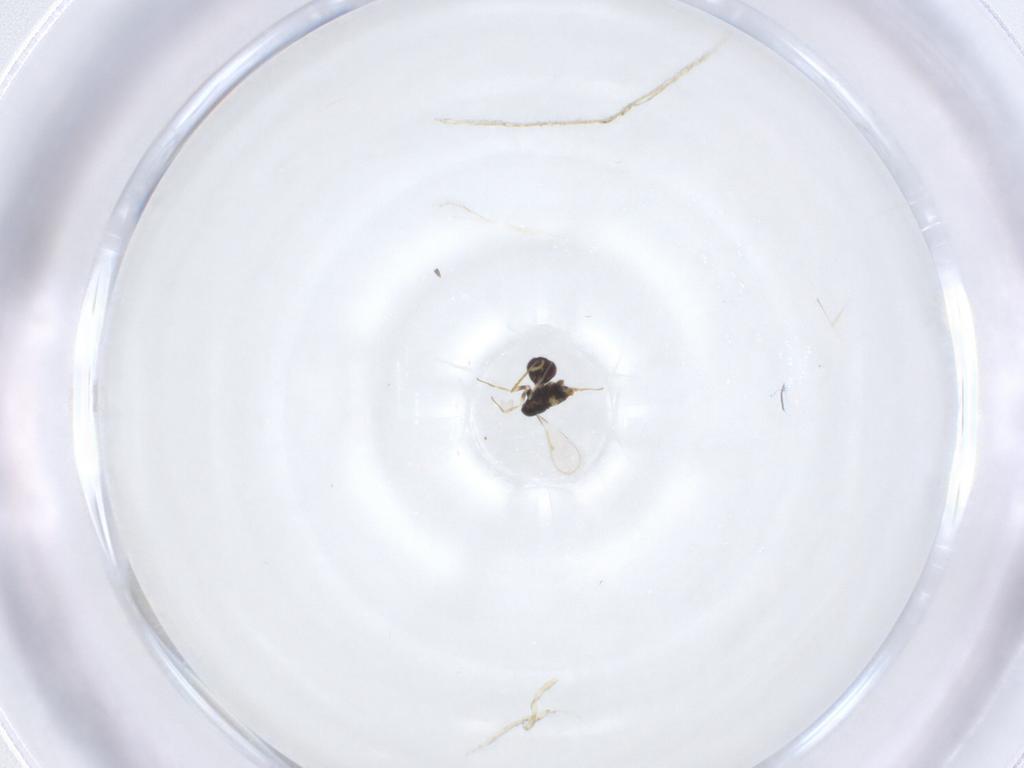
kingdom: Animalia
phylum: Arthropoda
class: Insecta
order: Hymenoptera
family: Aphelinidae
